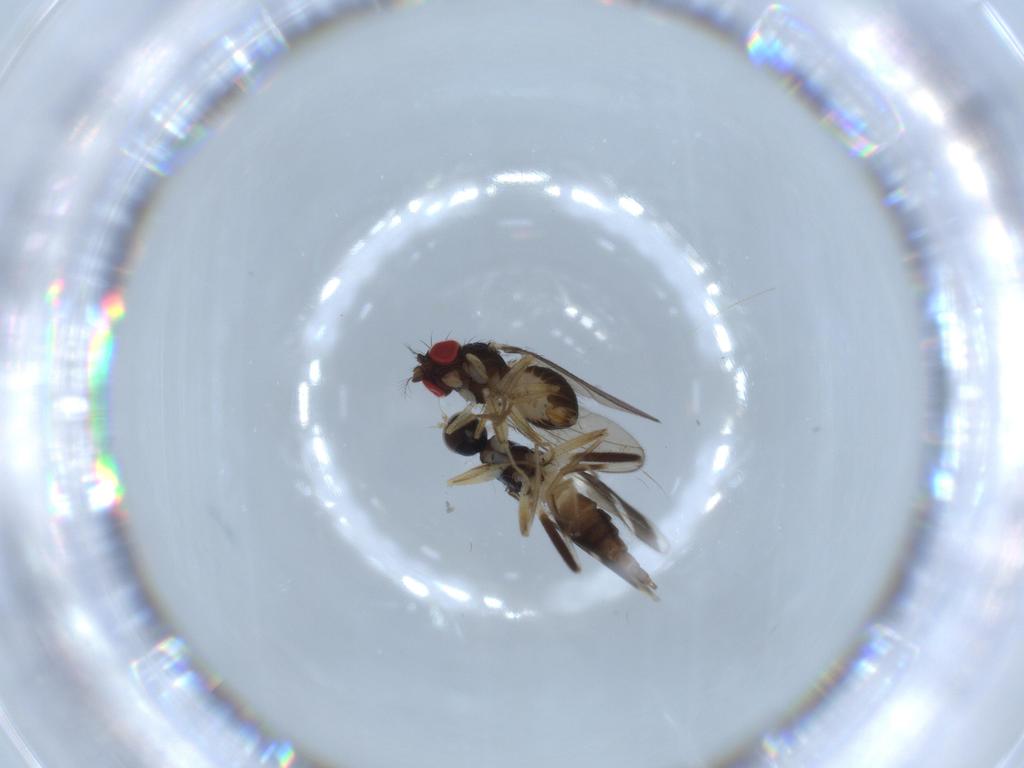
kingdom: Animalia
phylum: Arthropoda
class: Insecta
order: Diptera
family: Drosophilidae
